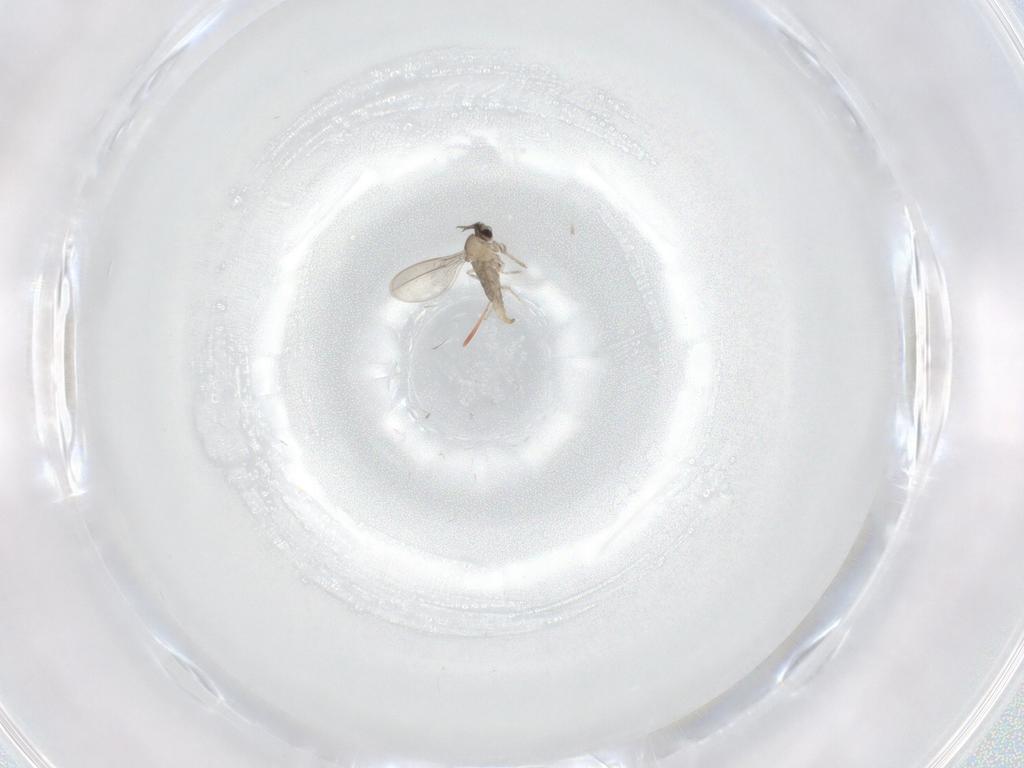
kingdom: Animalia
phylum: Arthropoda
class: Insecta
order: Diptera
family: Cecidomyiidae
